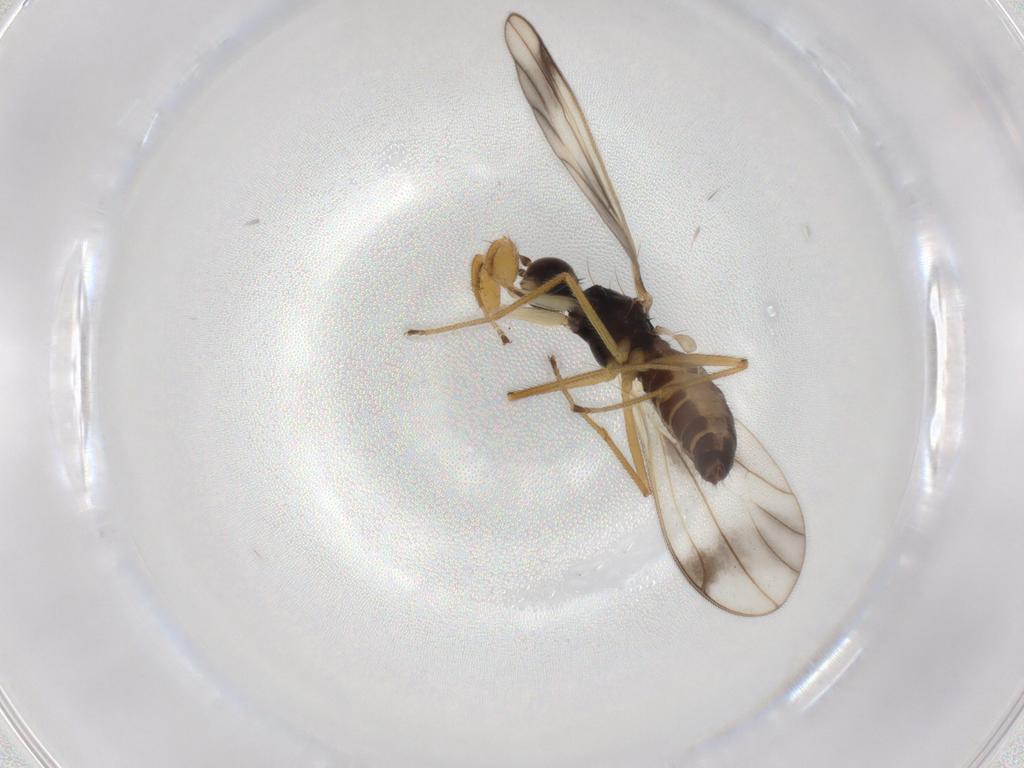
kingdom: Animalia
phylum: Arthropoda
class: Insecta
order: Diptera
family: Empididae
